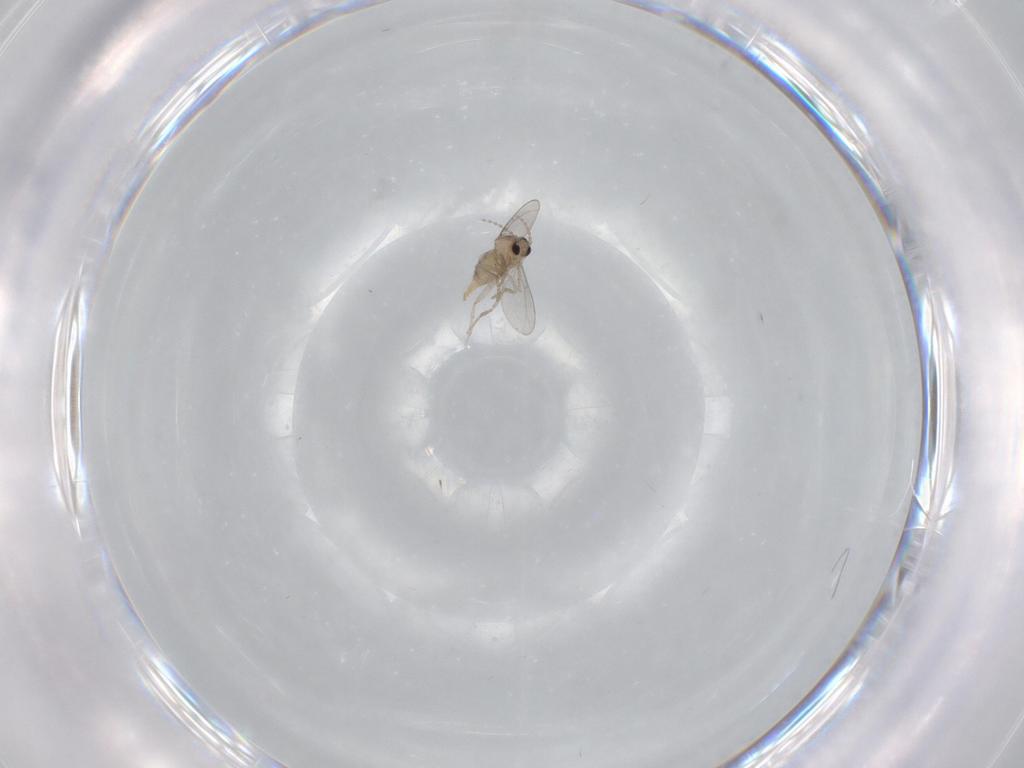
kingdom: Animalia
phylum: Arthropoda
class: Insecta
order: Diptera
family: Cecidomyiidae
